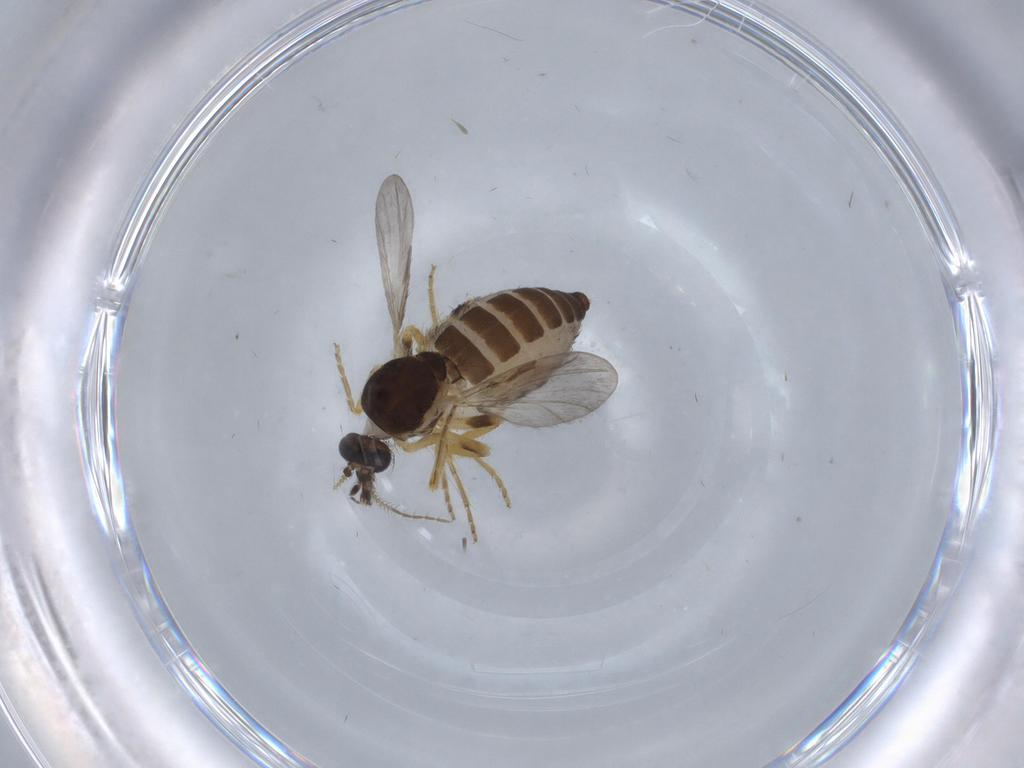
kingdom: Animalia
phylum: Arthropoda
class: Insecta
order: Diptera
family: Ceratopogonidae
